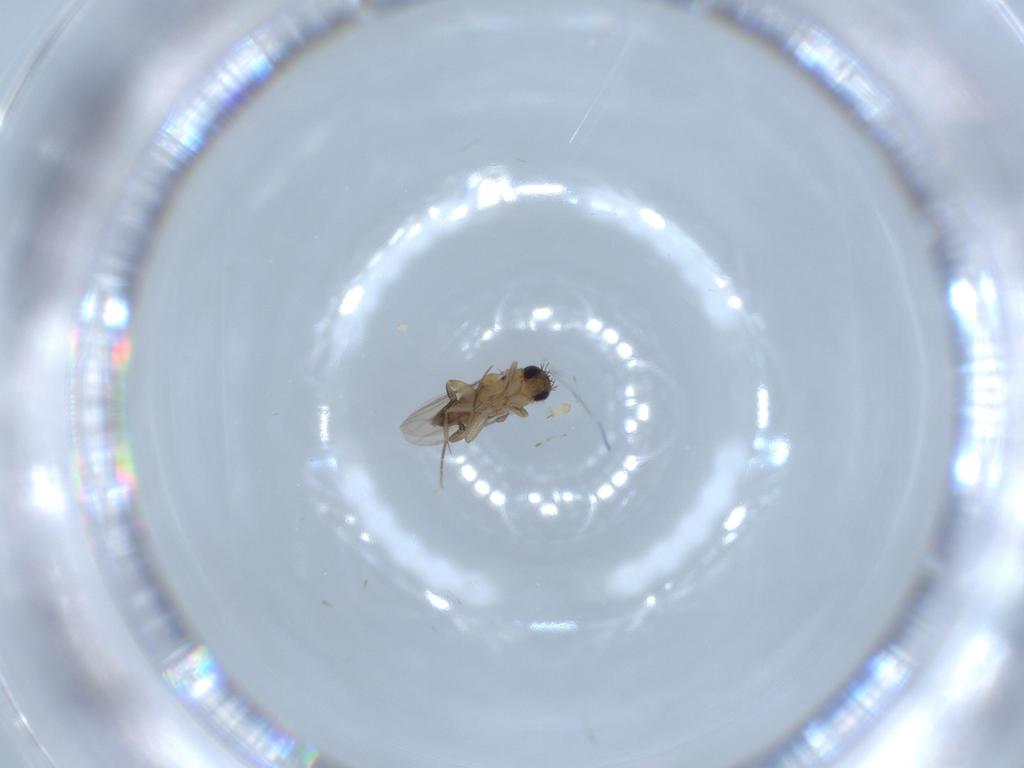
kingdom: Animalia
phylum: Arthropoda
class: Insecta
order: Diptera
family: Phoridae
